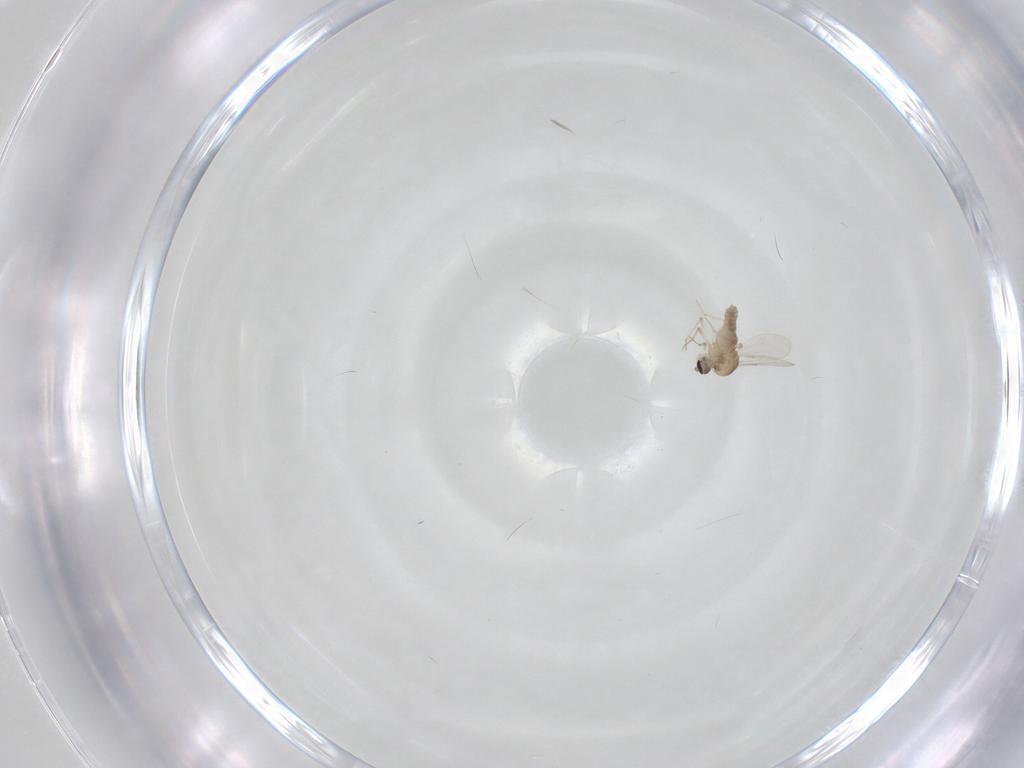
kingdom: Animalia
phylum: Arthropoda
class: Insecta
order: Diptera
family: Ceratopogonidae
